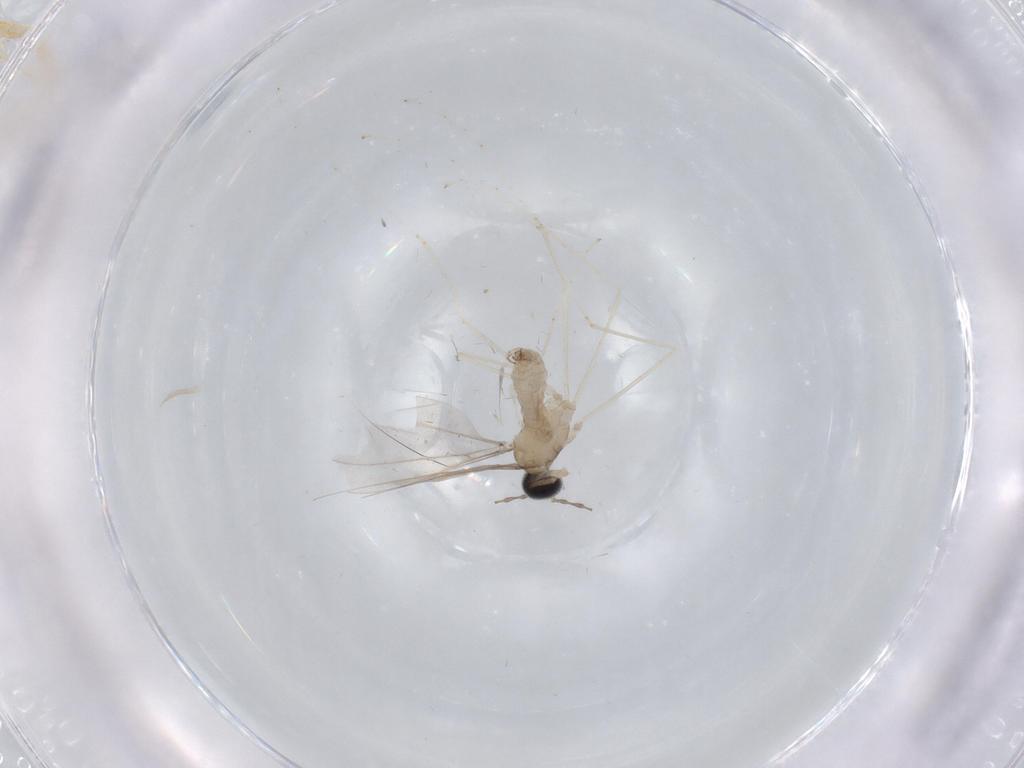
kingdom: Animalia
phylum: Arthropoda
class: Insecta
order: Diptera
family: Cecidomyiidae
